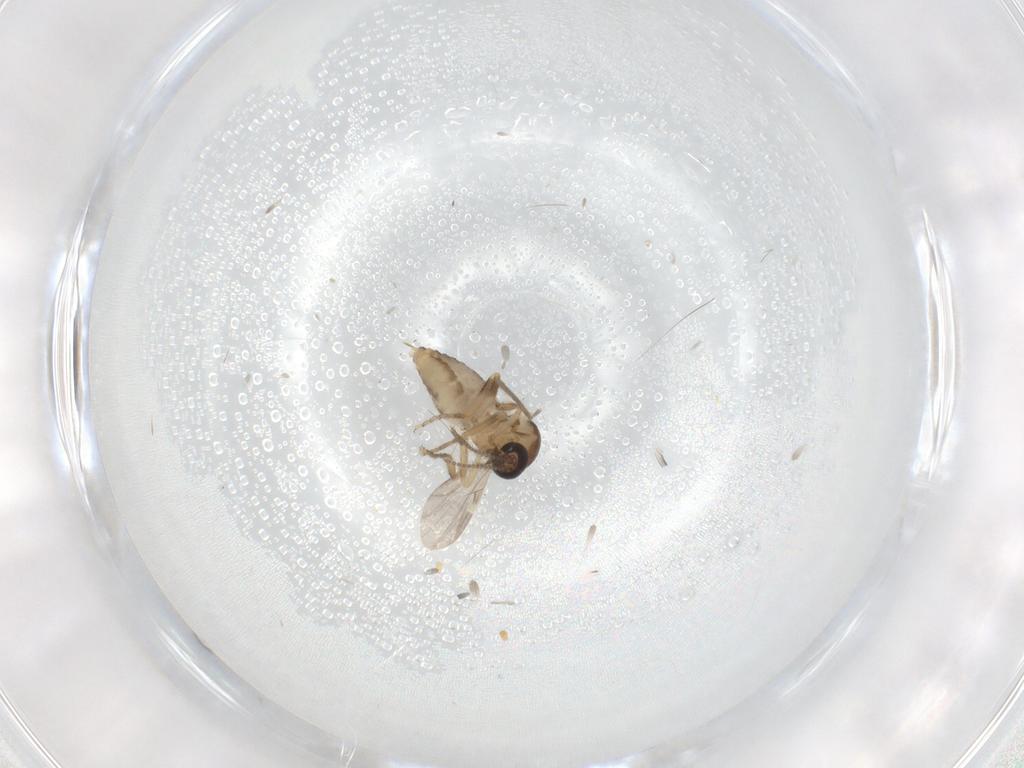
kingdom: Animalia
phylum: Arthropoda
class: Insecta
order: Diptera
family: Ceratopogonidae
